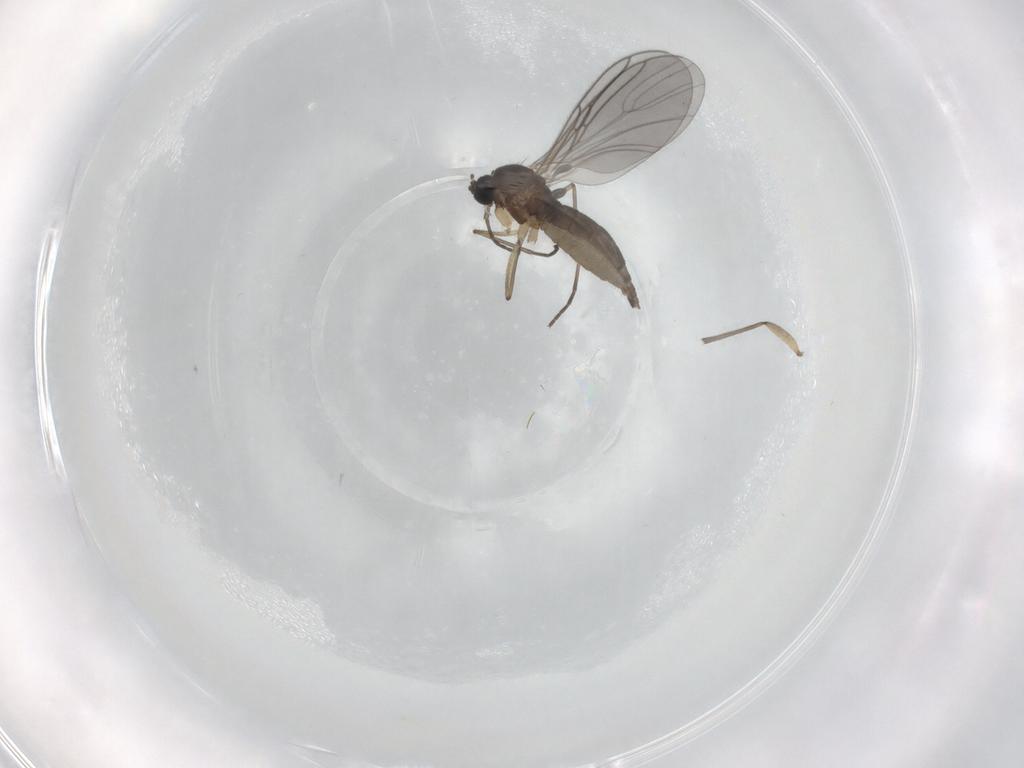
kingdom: Animalia
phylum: Arthropoda
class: Insecta
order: Diptera
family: Sciaridae
